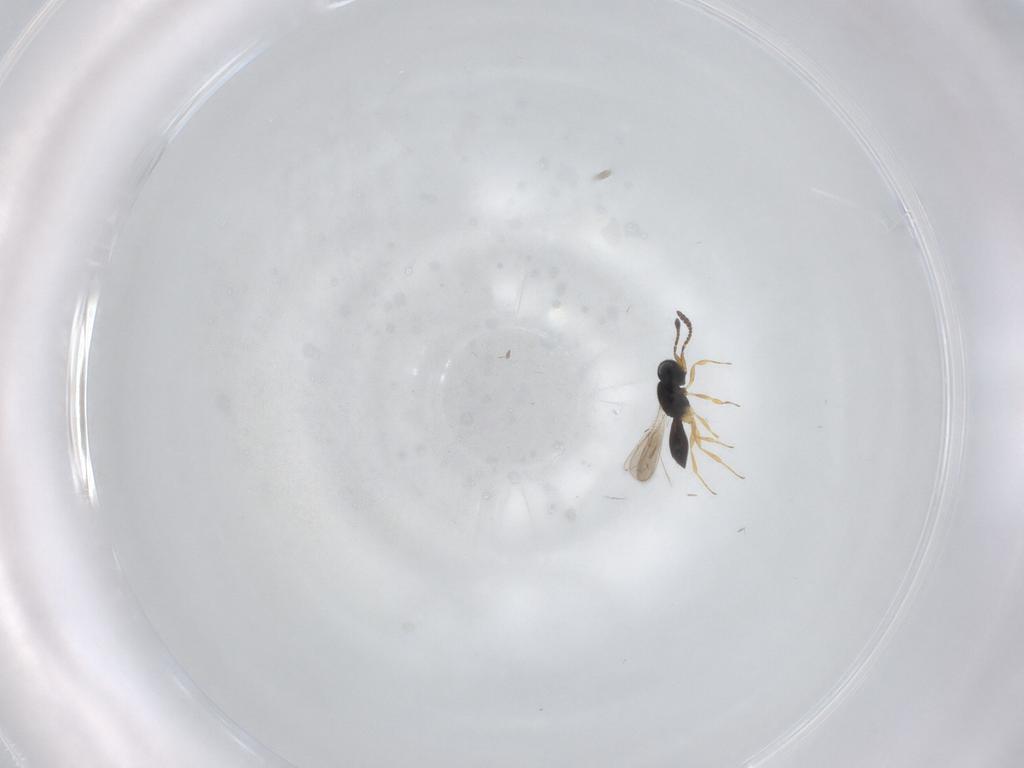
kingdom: Animalia
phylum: Arthropoda
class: Insecta
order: Hymenoptera
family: Scelionidae
